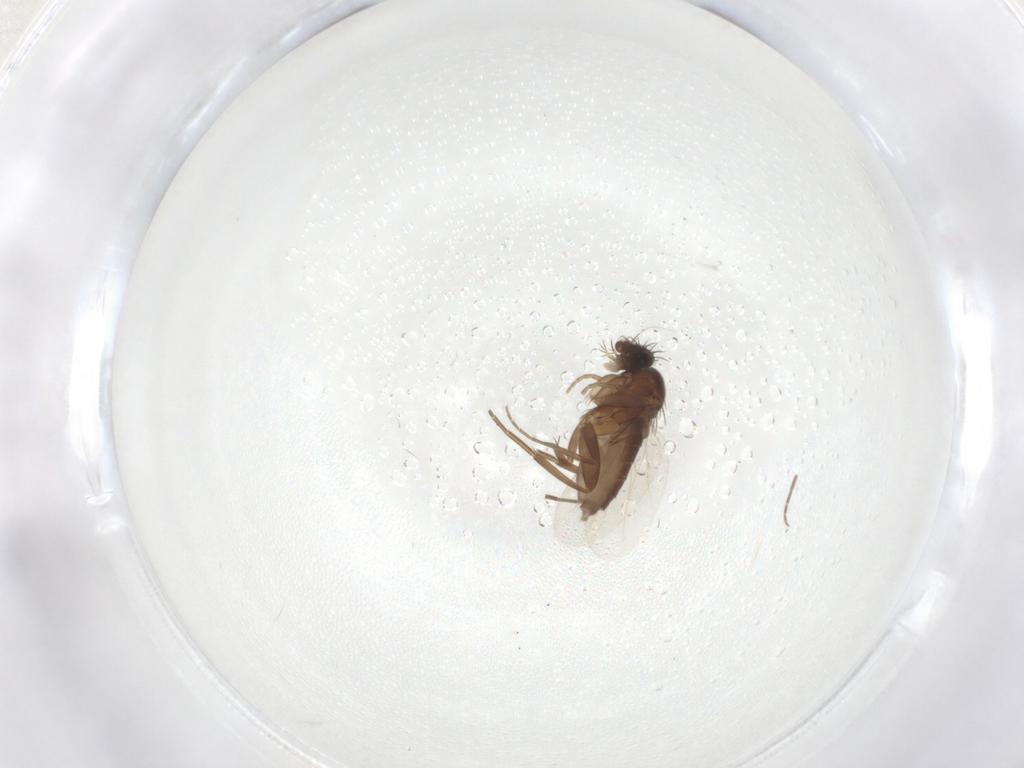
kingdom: Animalia
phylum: Arthropoda
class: Insecta
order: Diptera
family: Phoridae
